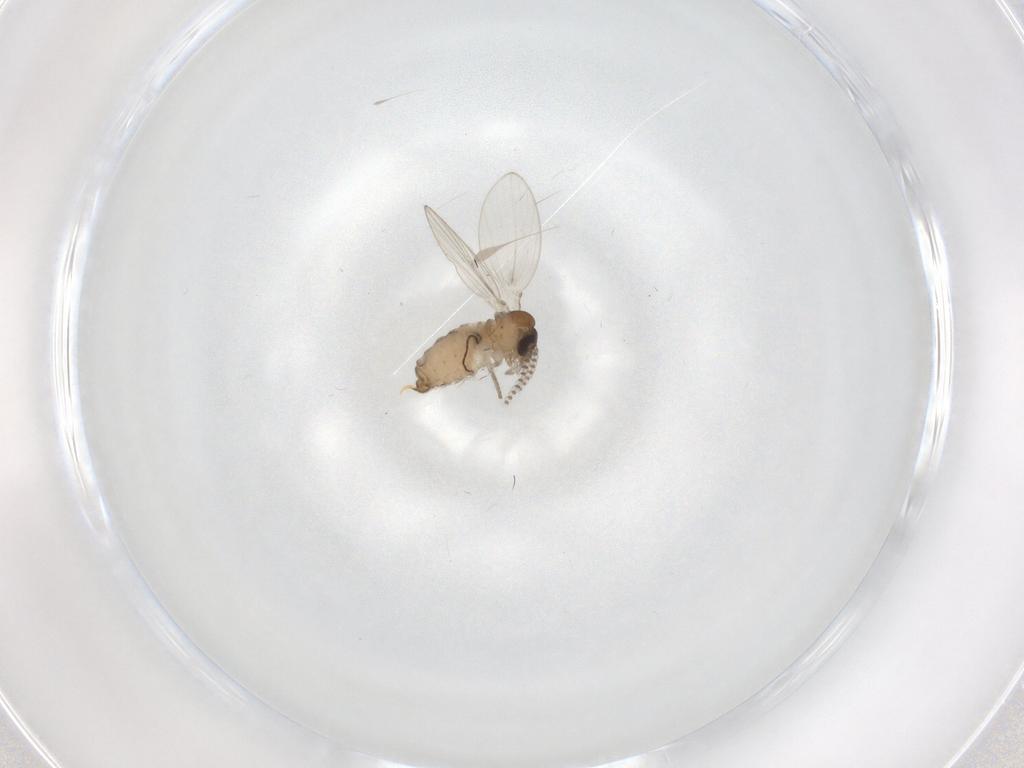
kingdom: Animalia
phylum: Arthropoda
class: Insecta
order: Diptera
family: Psychodidae
